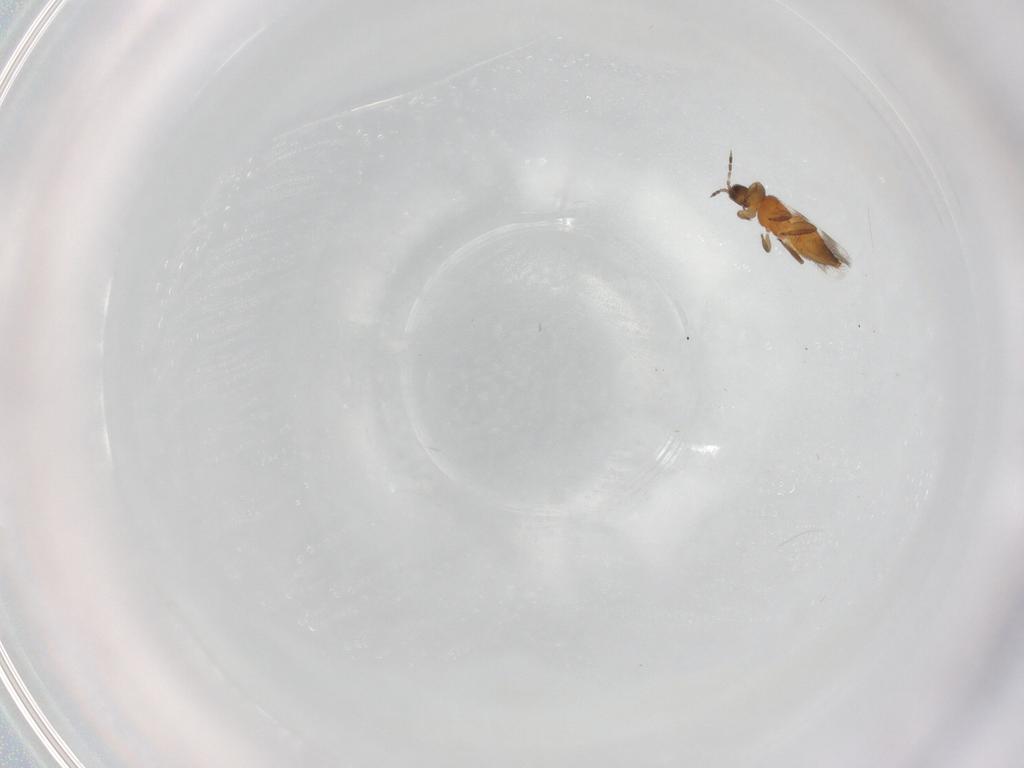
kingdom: Animalia
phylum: Arthropoda
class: Insecta
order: Thysanoptera
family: Aeolothripidae
